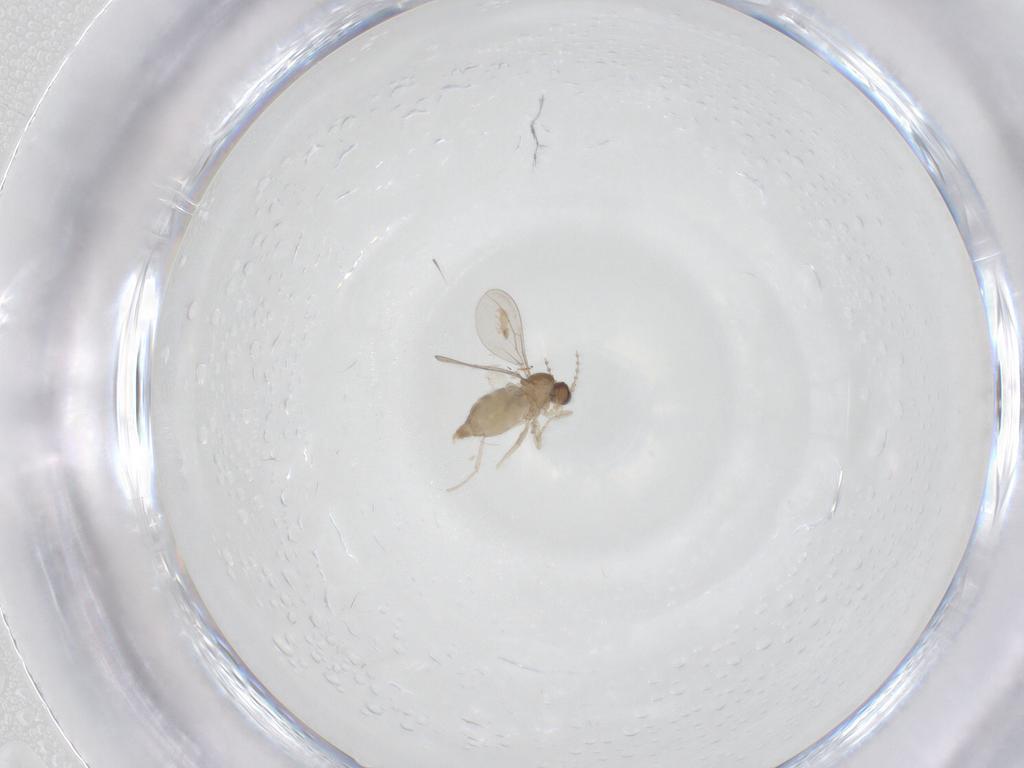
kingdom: Animalia
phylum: Arthropoda
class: Insecta
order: Diptera
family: Cecidomyiidae
